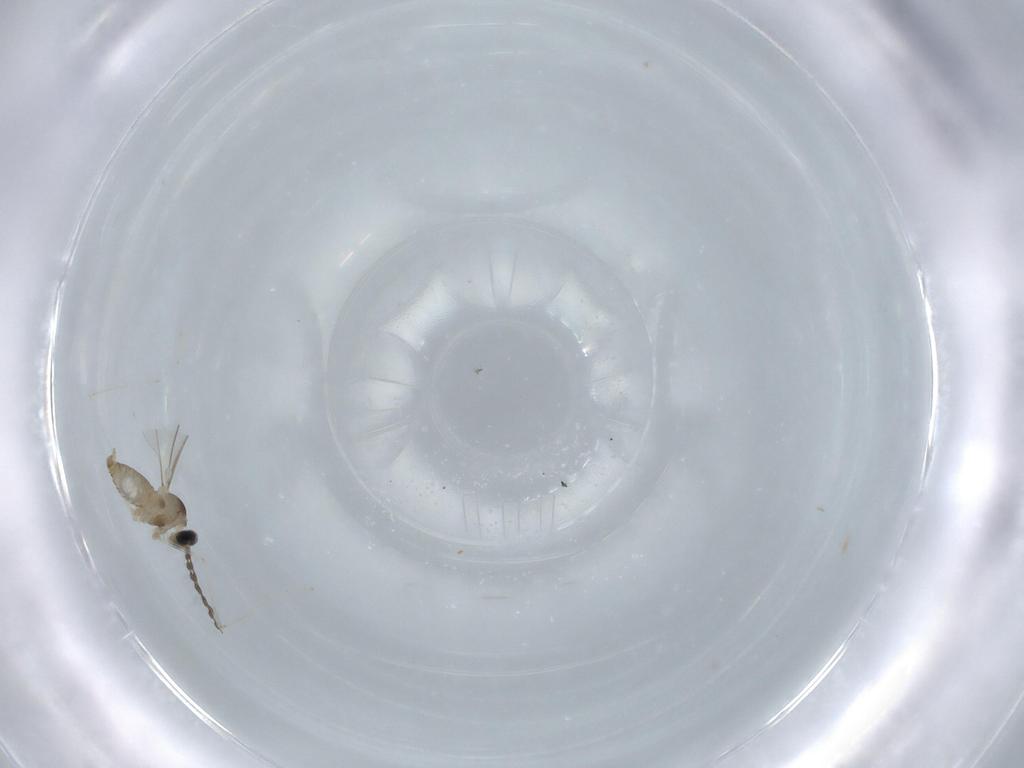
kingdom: Animalia
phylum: Arthropoda
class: Insecta
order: Diptera
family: Cecidomyiidae
